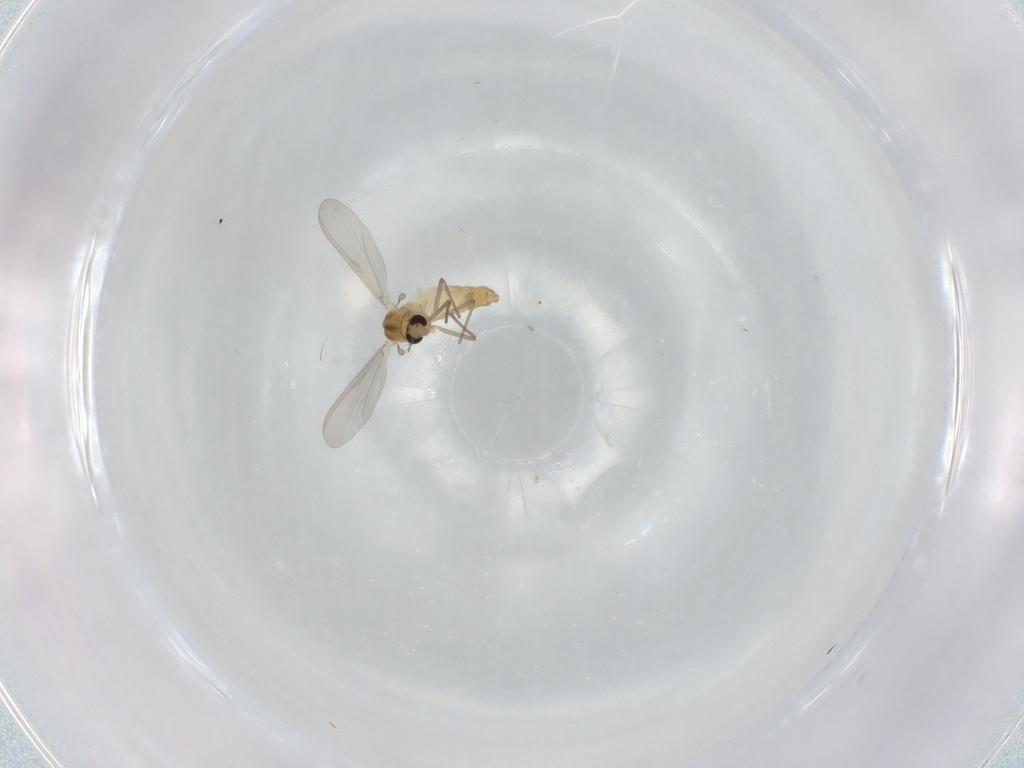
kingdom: Animalia
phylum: Arthropoda
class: Insecta
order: Diptera
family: Chironomidae
